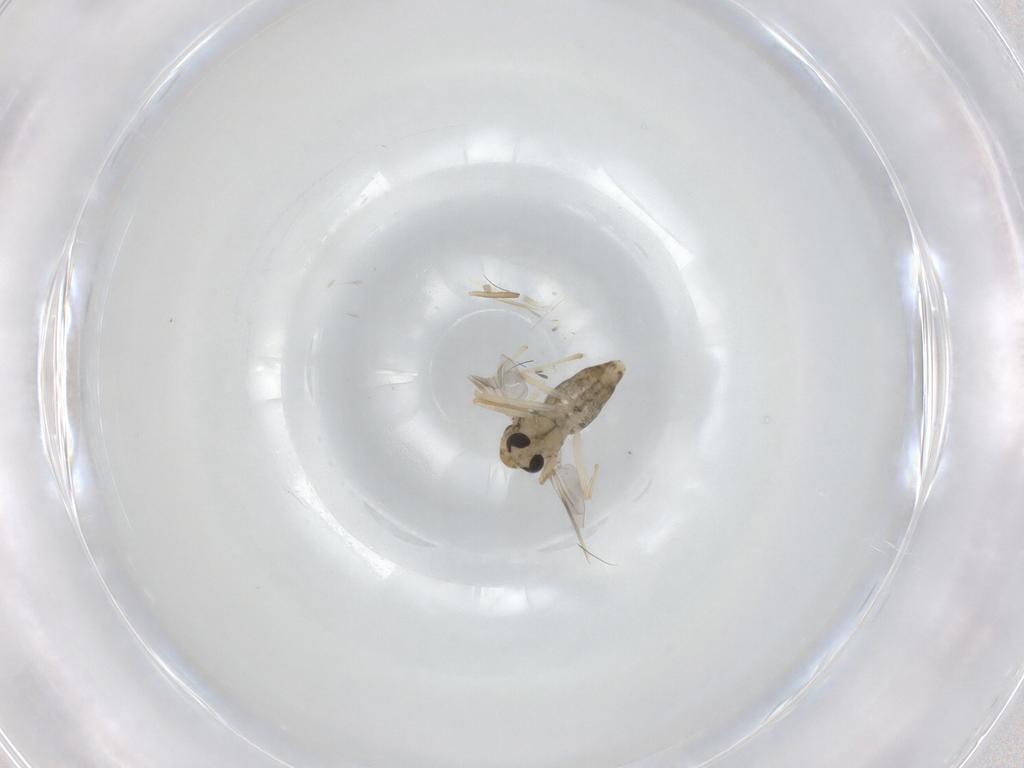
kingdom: Animalia
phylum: Arthropoda
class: Insecta
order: Diptera
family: Chironomidae
